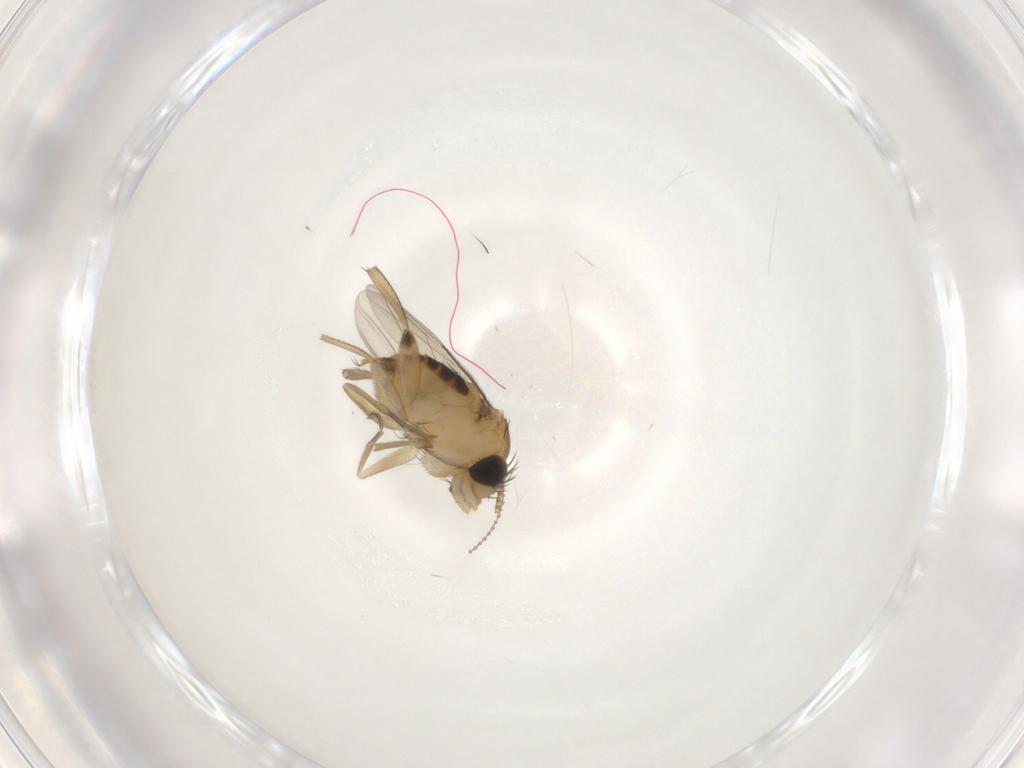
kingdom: Animalia
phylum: Arthropoda
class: Insecta
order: Diptera
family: Phoridae
